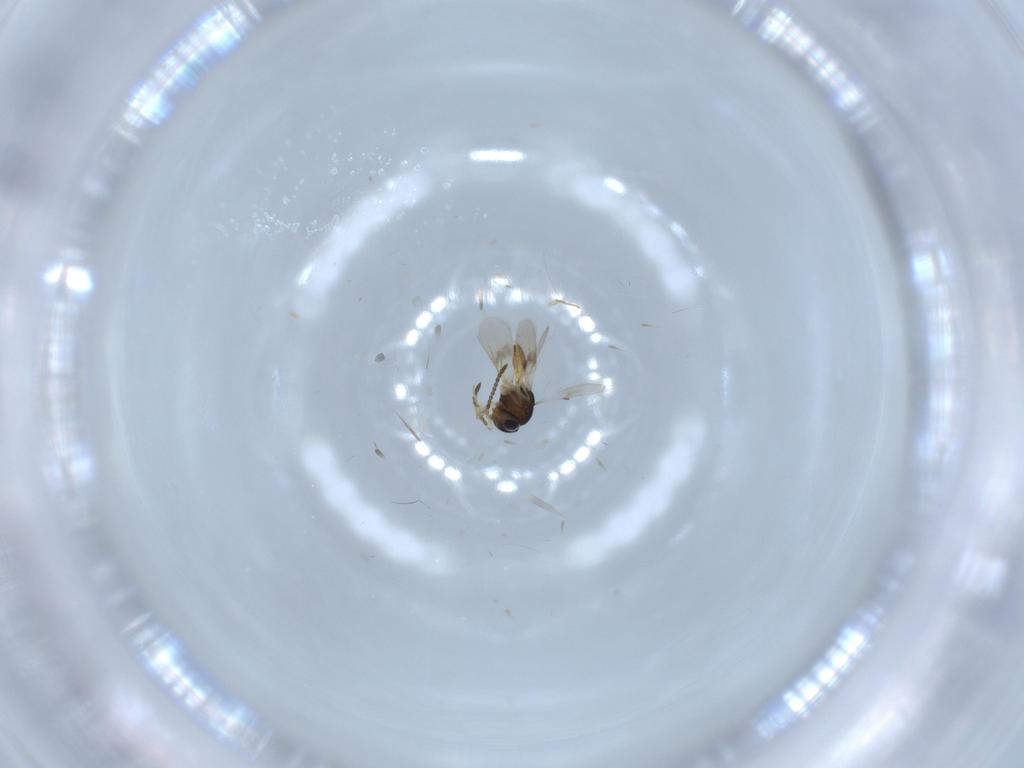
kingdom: Animalia
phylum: Arthropoda
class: Insecta
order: Hymenoptera
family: Scelionidae
